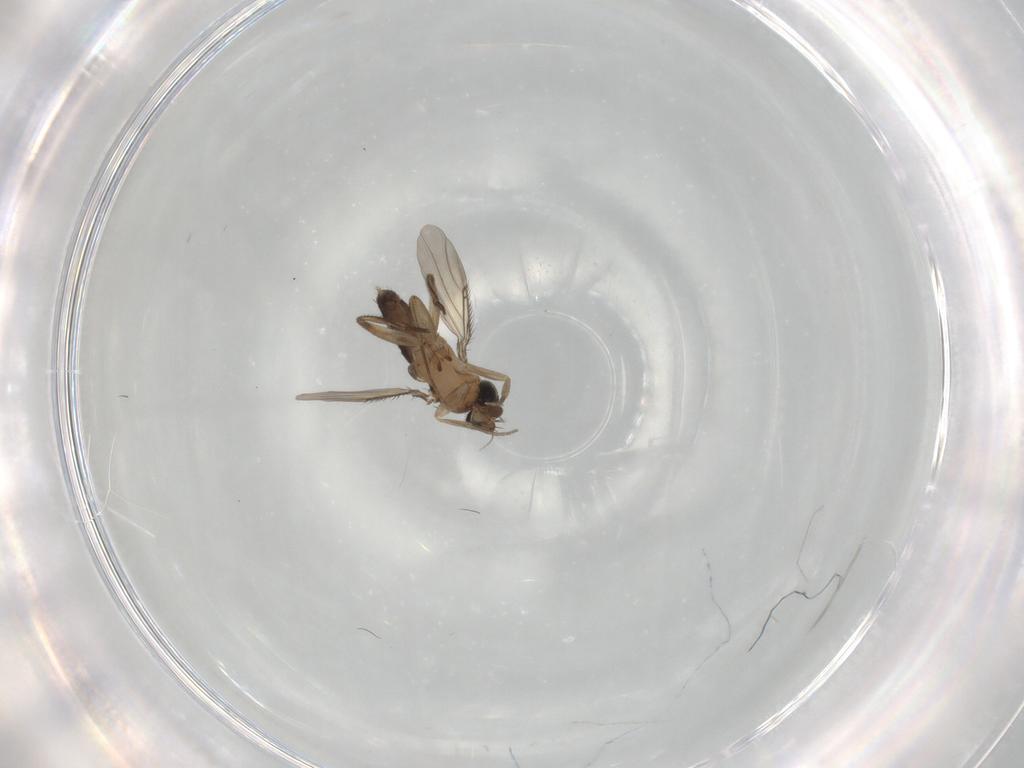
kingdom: Animalia
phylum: Arthropoda
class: Insecta
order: Diptera
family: Phoridae
